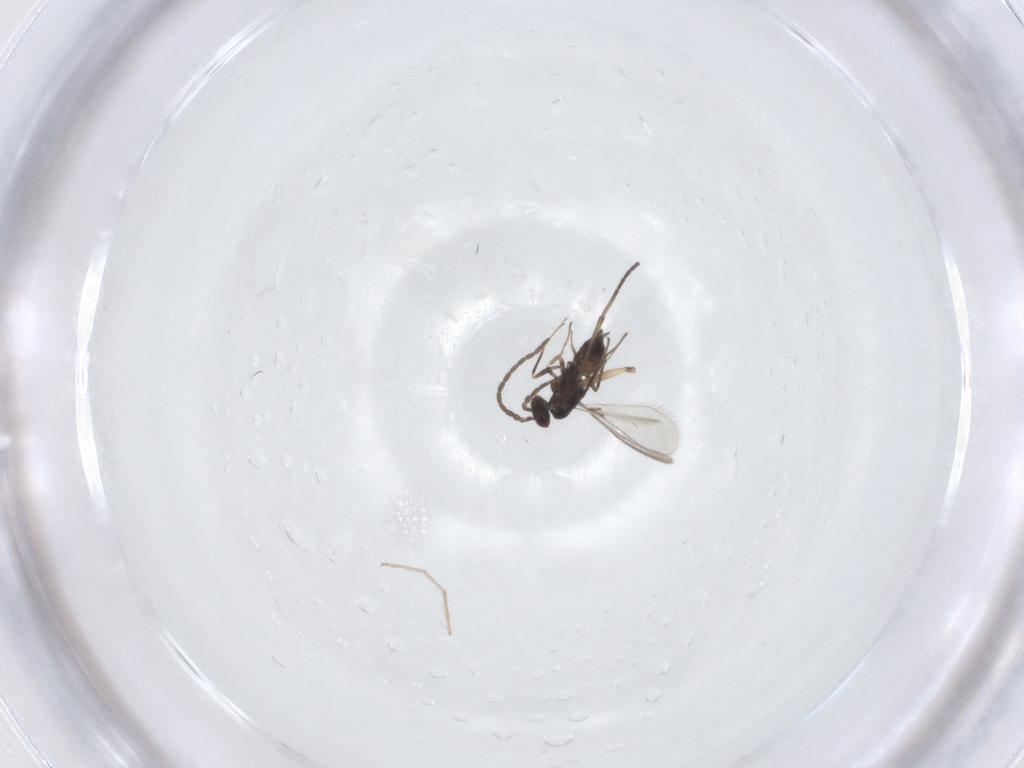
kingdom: Animalia
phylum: Arthropoda
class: Insecta
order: Hymenoptera
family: Mymaridae
